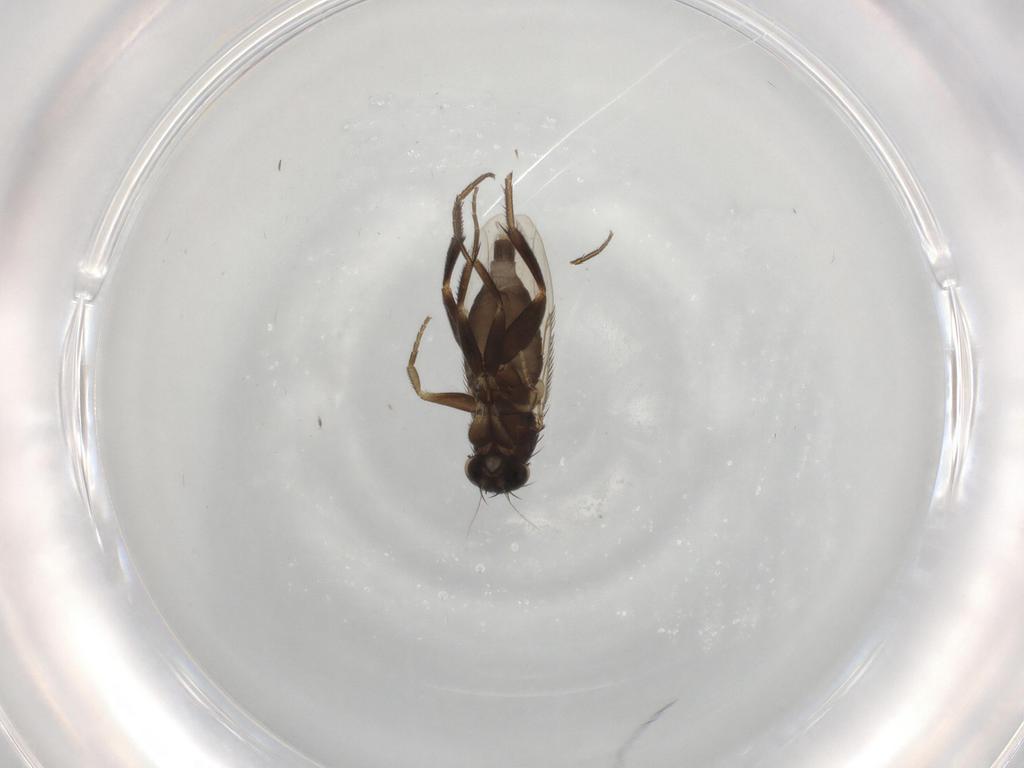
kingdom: Animalia
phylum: Arthropoda
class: Insecta
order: Diptera
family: Phoridae
